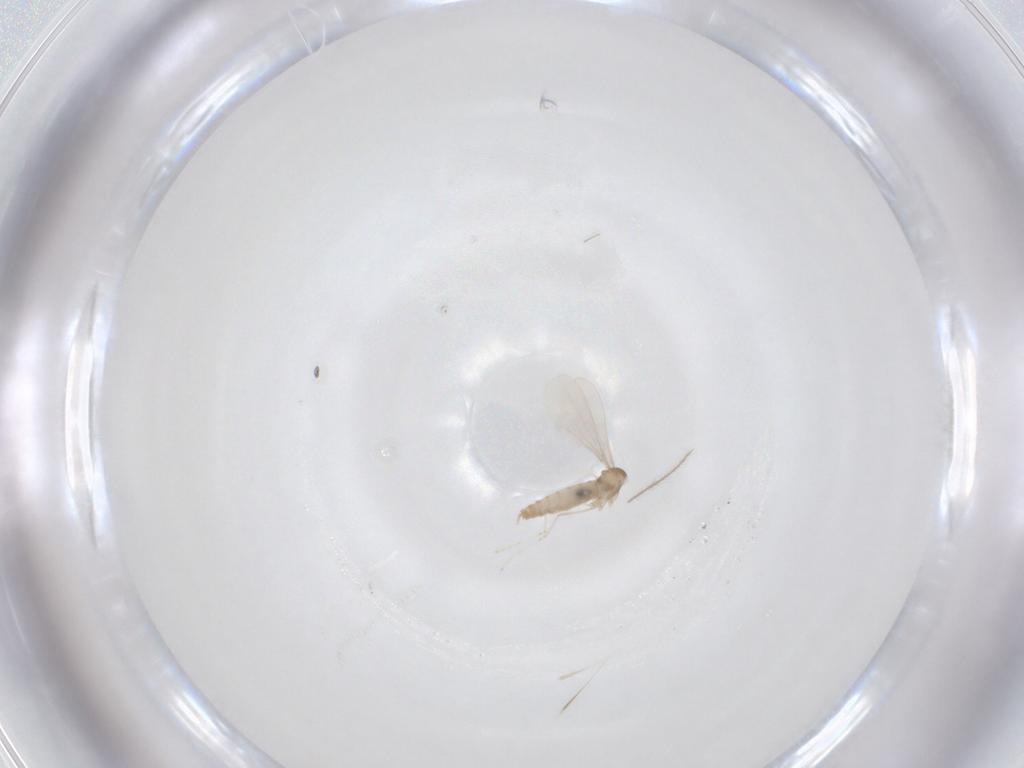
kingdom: Animalia
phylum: Arthropoda
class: Insecta
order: Diptera
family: Cecidomyiidae
